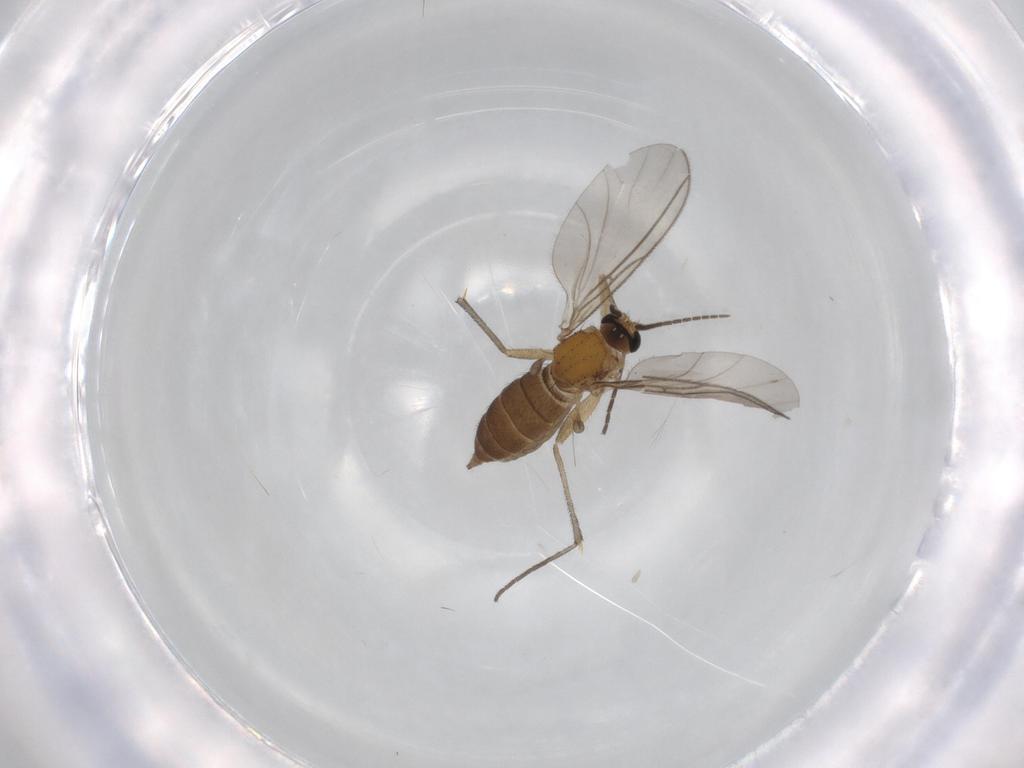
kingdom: Animalia
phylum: Arthropoda
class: Insecta
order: Diptera
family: Sciaridae
